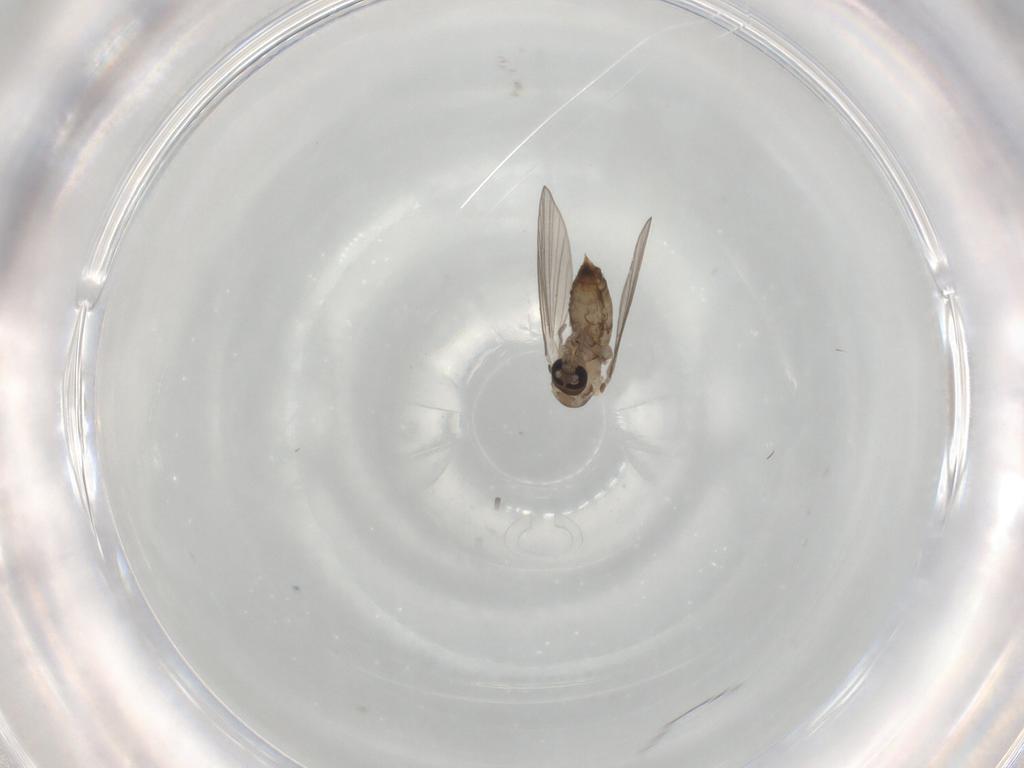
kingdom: Animalia
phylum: Arthropoda
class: Insecta
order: Diptera
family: Psychodidae
